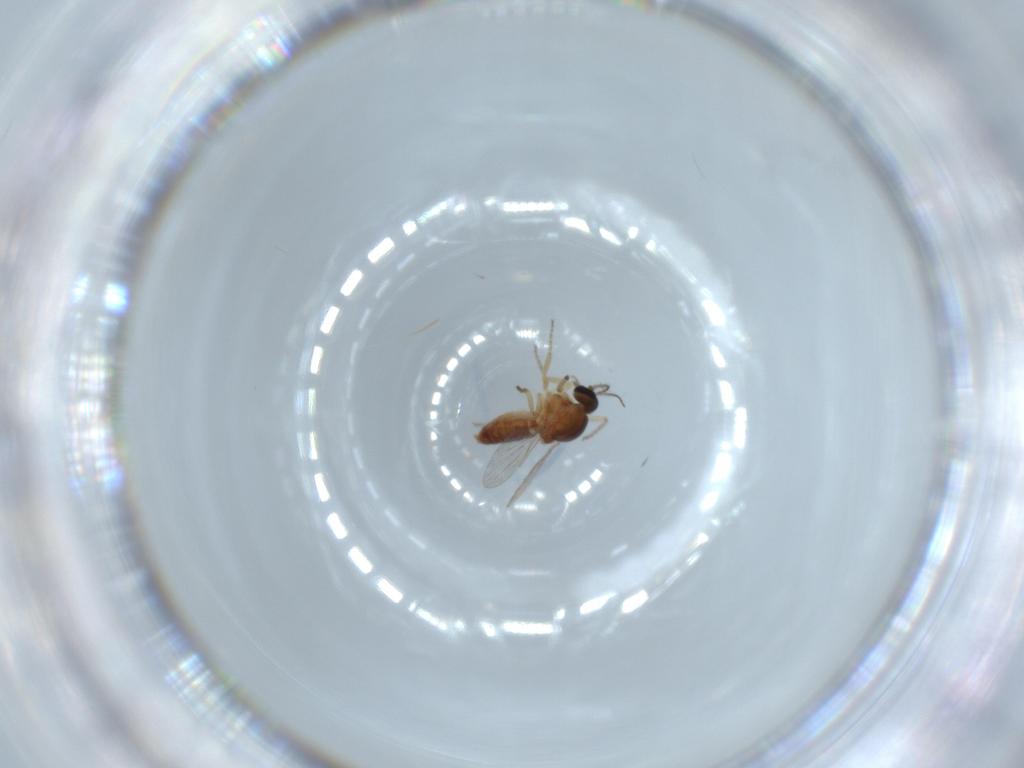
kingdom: Animalia
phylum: Arthropoda
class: Insecta
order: Diptera
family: Ceratopogonidae
